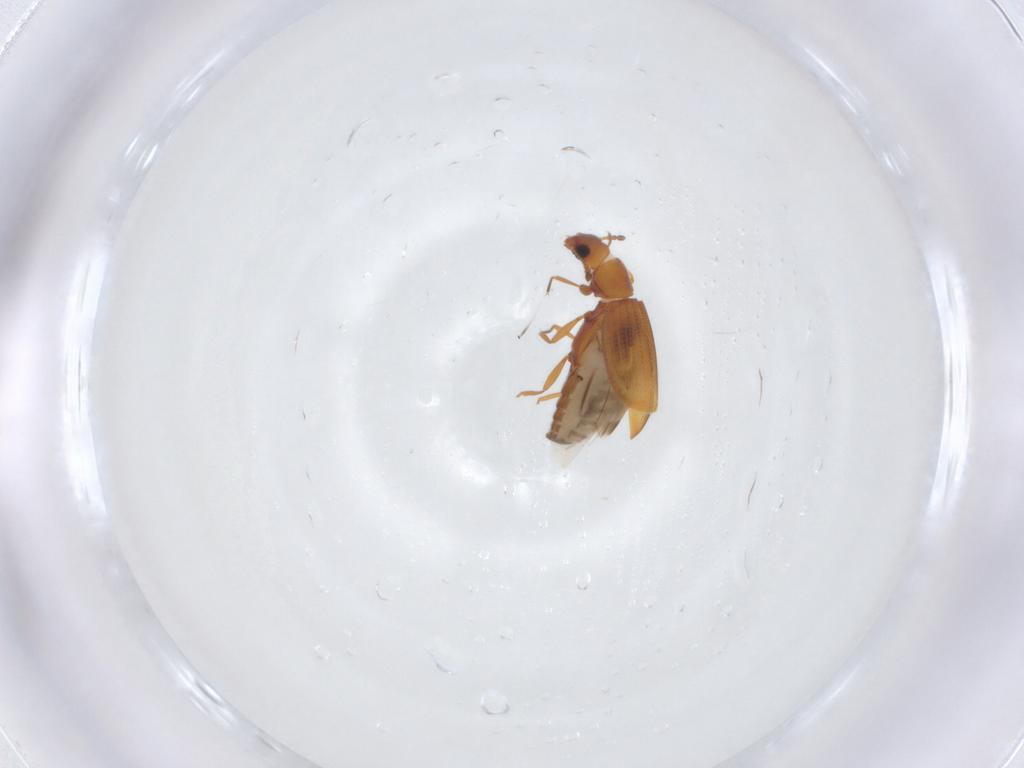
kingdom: Animalia
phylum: Arthropoda
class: Insecta
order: Coleoptera
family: Latridiidae
